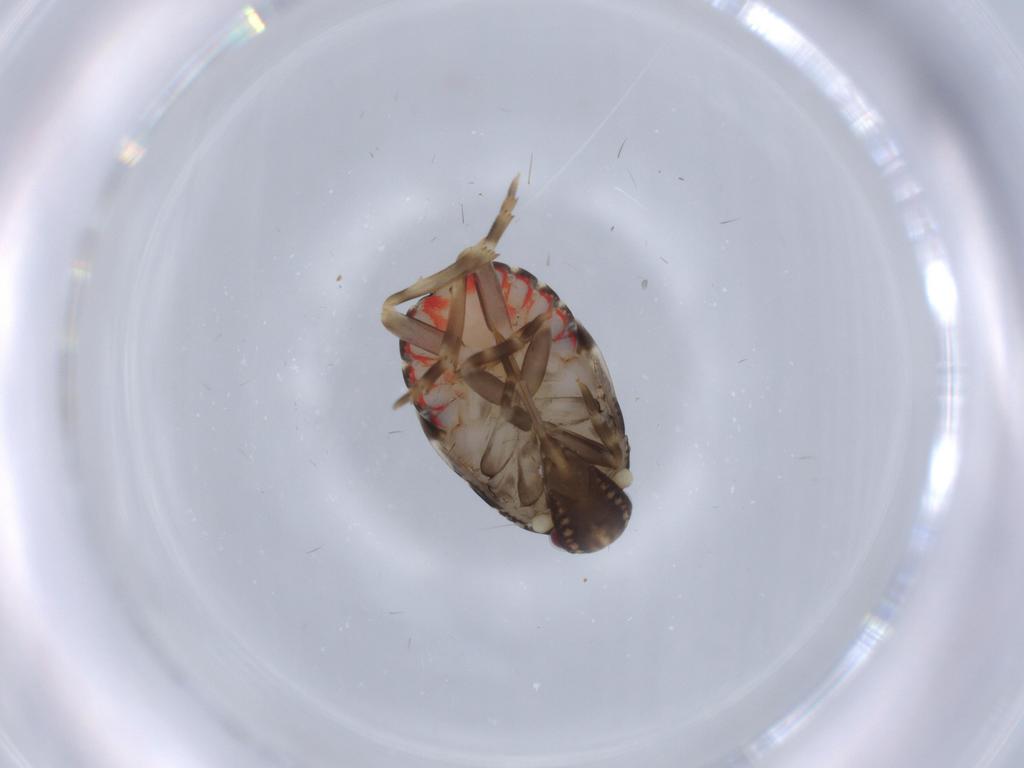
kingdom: Animalia
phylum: Arthropoda
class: Insecta
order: Hemiptera
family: Achilidae
